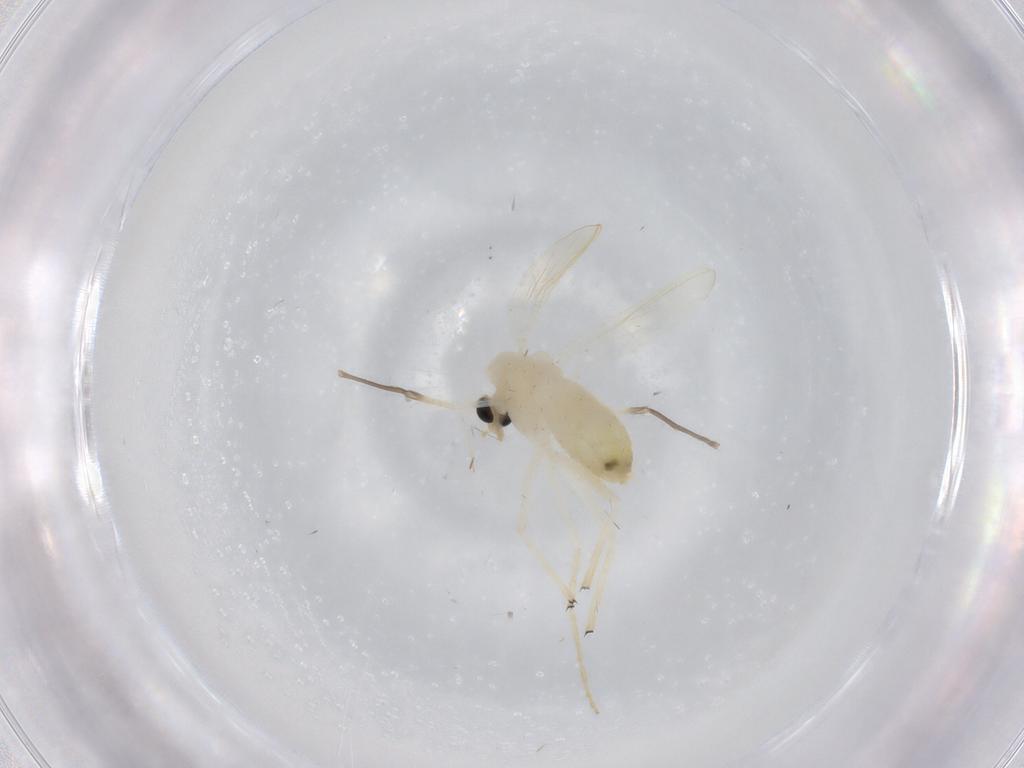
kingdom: Animalia
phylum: Arthropoda
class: Insecta
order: Diptera
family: Chironomidae
